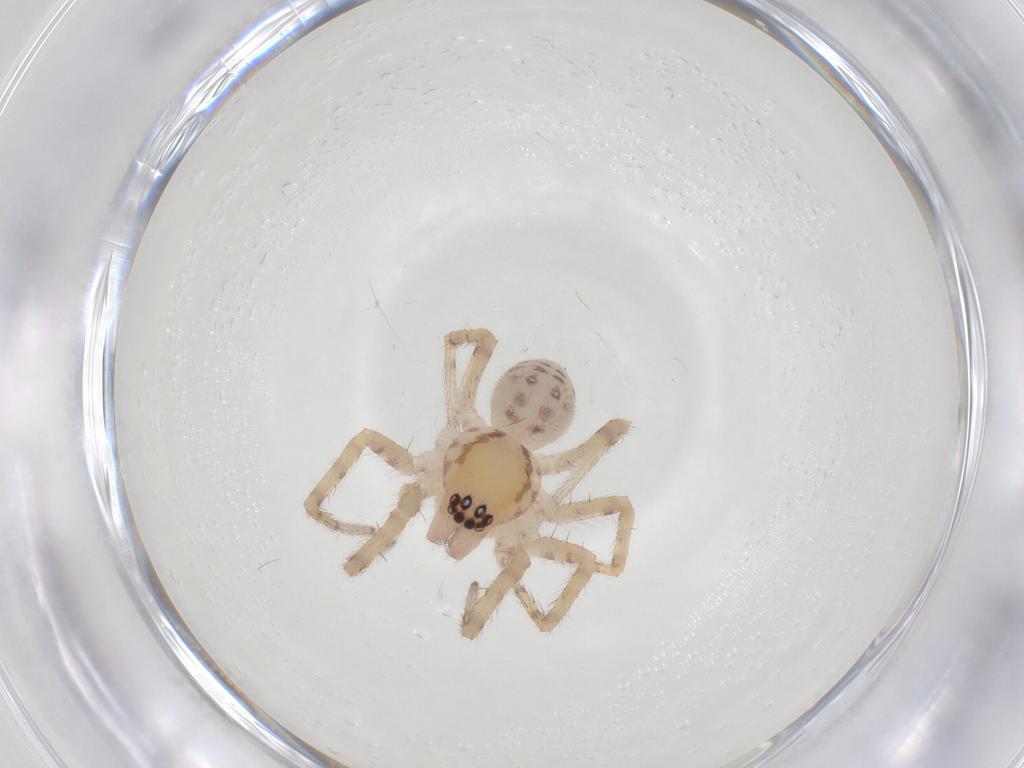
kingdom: Animalia
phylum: Arthropoda
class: Arachnida
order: Araneae
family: Corinnidae
